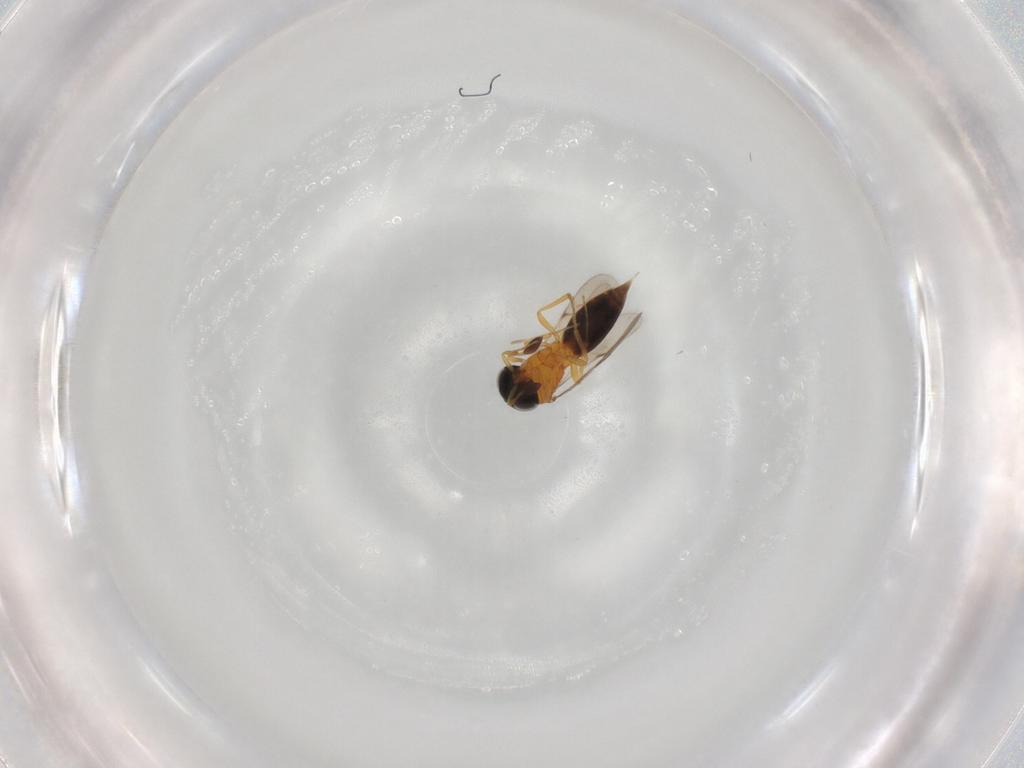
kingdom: Animalia
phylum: Arthropoda
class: Insecta
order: Hymenoptera
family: Scelionidae
